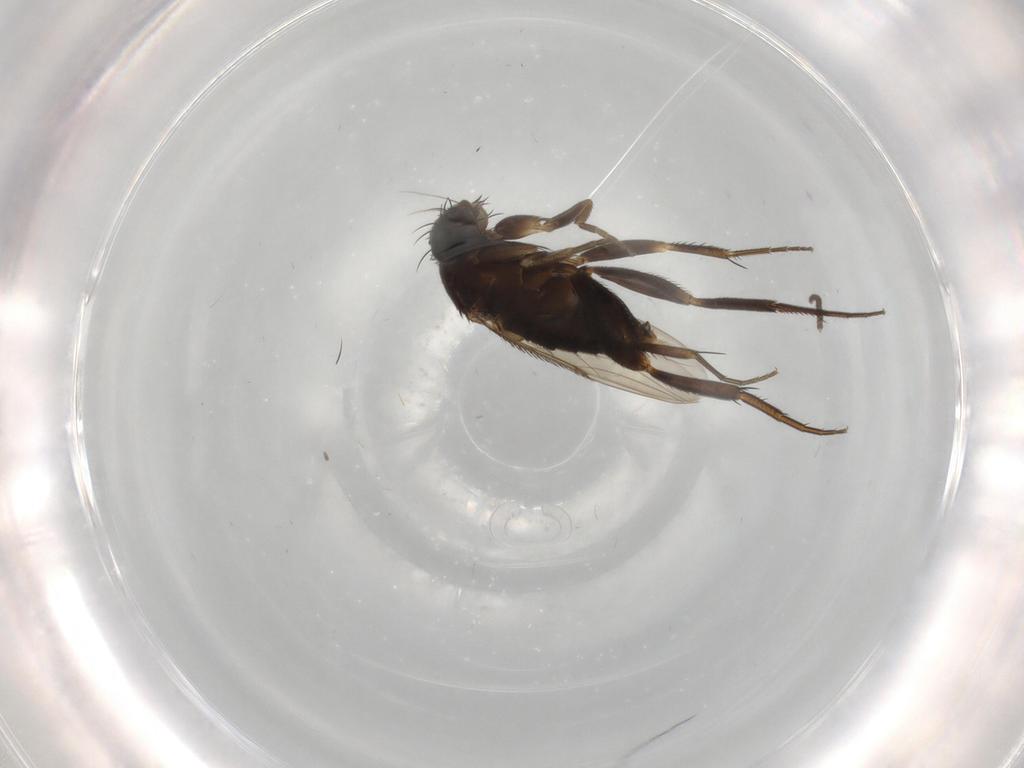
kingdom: Animalia
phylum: Arthropoda
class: Insecta
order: Diptera
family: Phoridae
